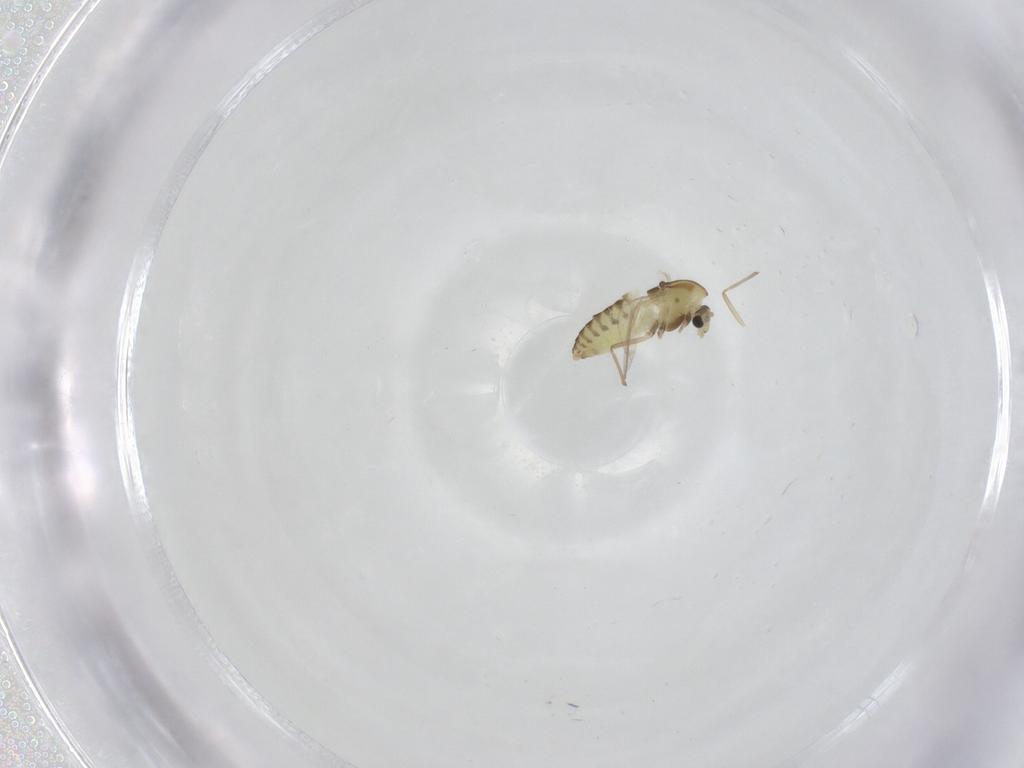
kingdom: Animalia
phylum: Arthropoda
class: Insecta
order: Diptera
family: Chironomidae
